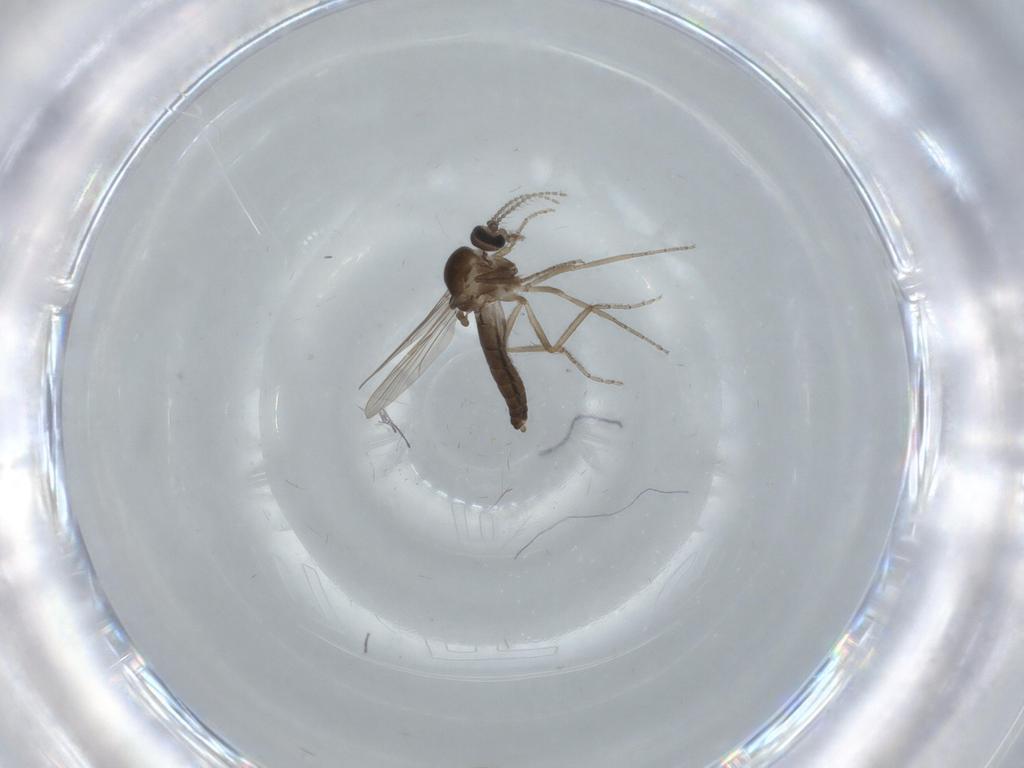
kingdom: Animalia
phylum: Arthropoda
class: Insecta
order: Diptera
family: Ceratopogonidae
